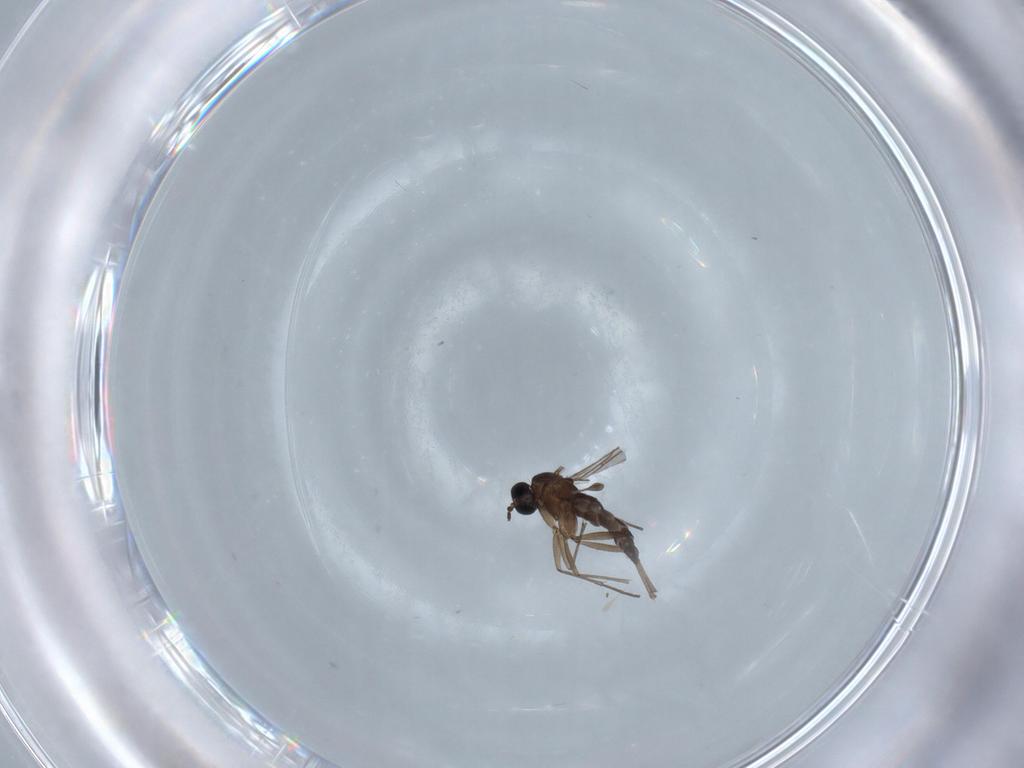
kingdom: Animalia
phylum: Arthropoda
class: Insecta
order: Diptera
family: Sciaridae
